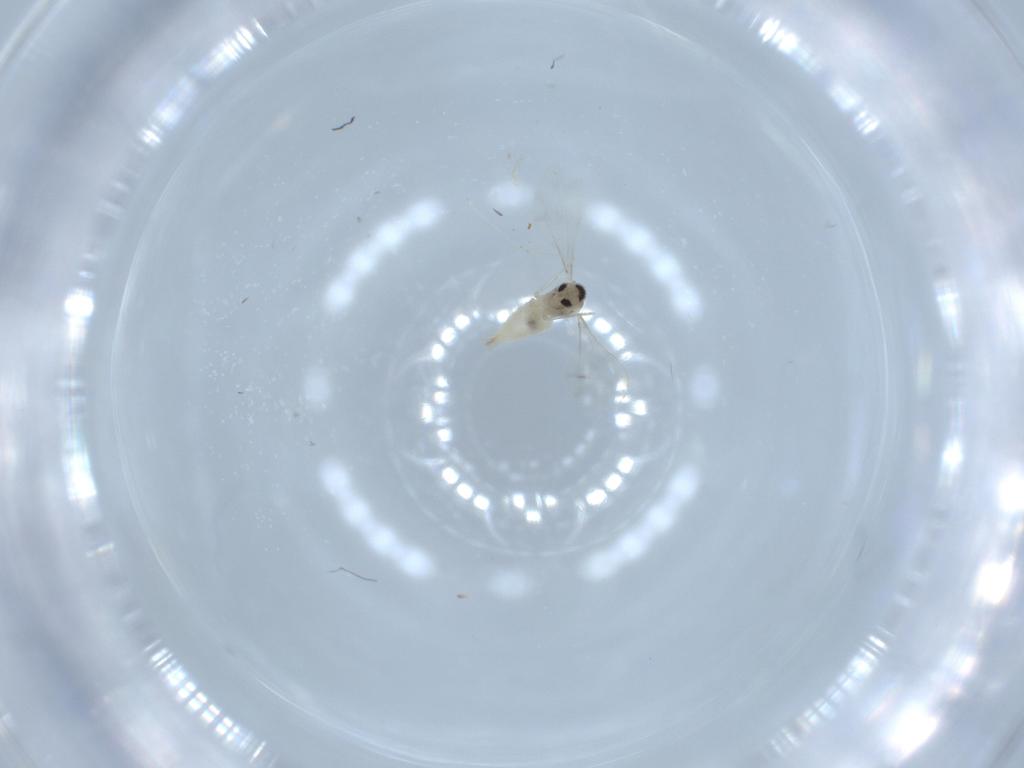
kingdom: Animalia
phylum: Arthropoda
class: Insecta
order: Diptera
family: Cecidomyiidae
